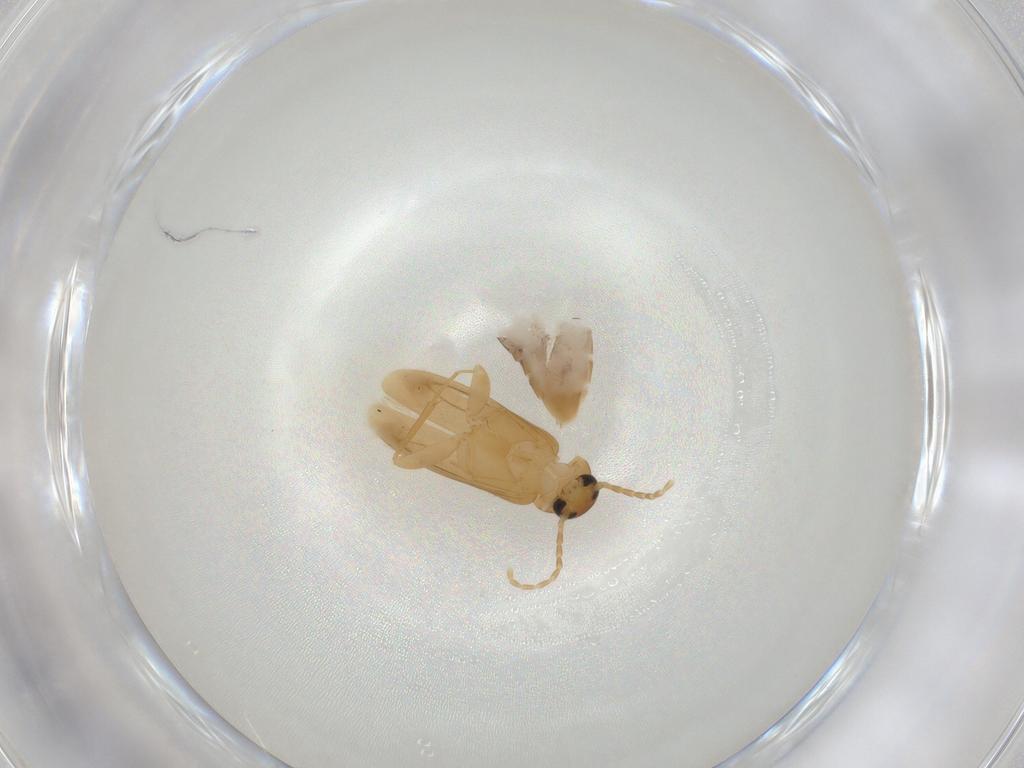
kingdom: Animalia
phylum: Arthropoda
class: Insecta
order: Coleoptera
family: Scraptiidae
